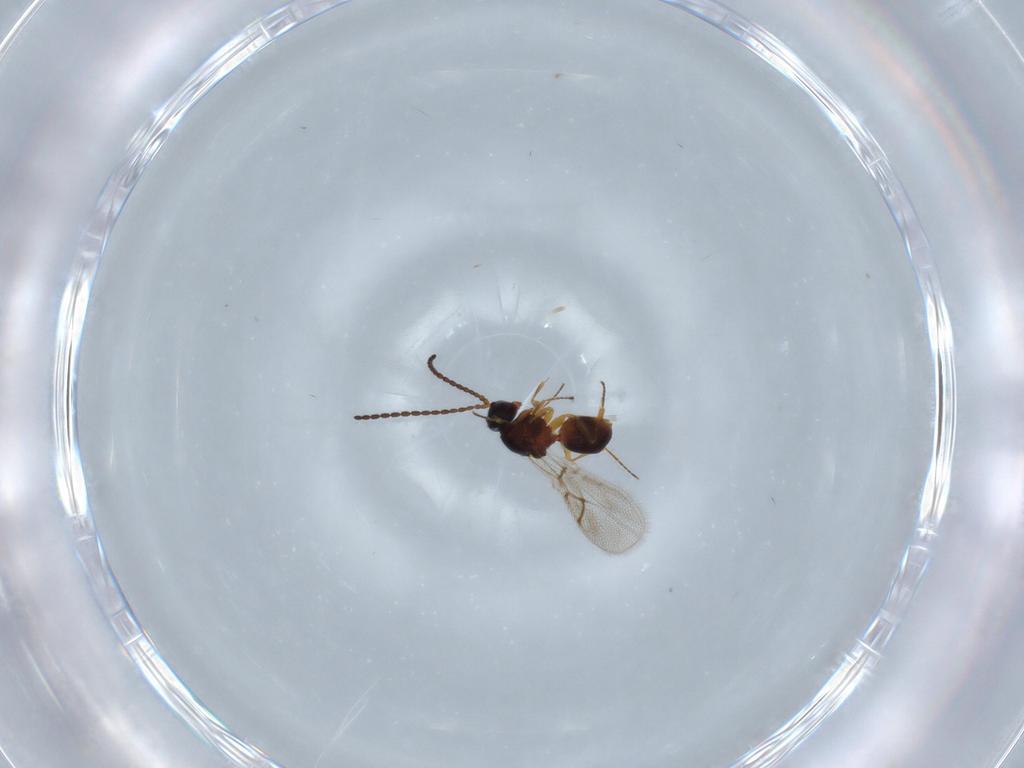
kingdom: Animalia
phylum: Arthropoda
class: Insecta
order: Hymenoptera
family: Figitidae
